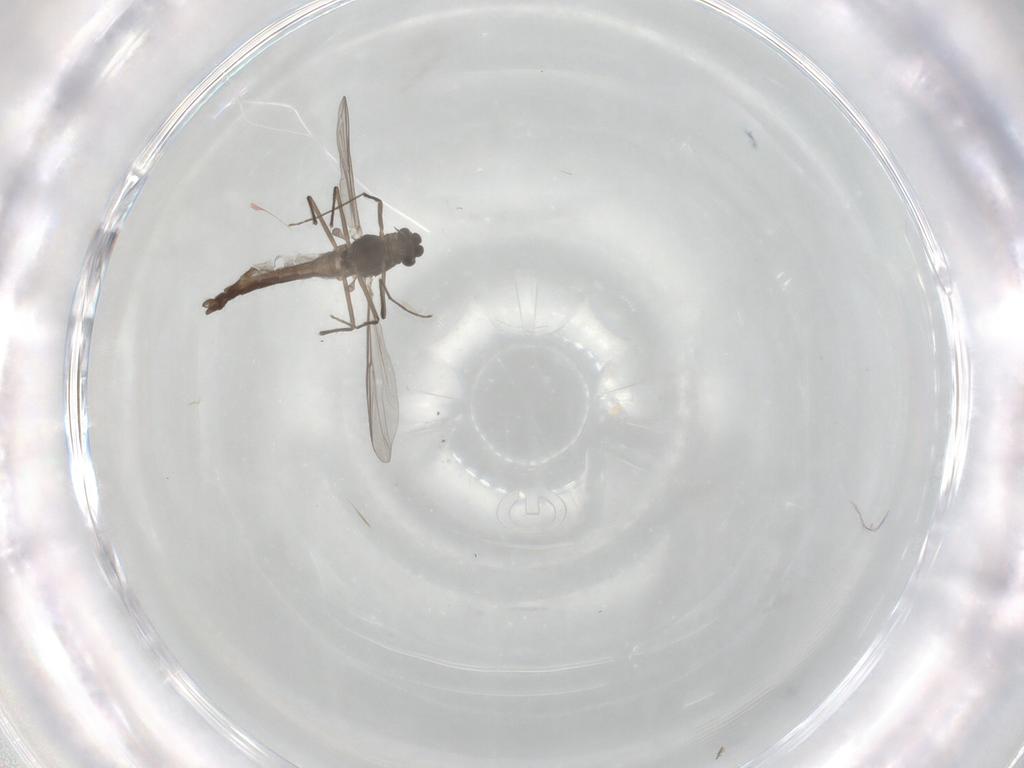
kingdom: Animalia
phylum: Arthropoda
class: Insecta
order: Diptera
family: Chironomidae
